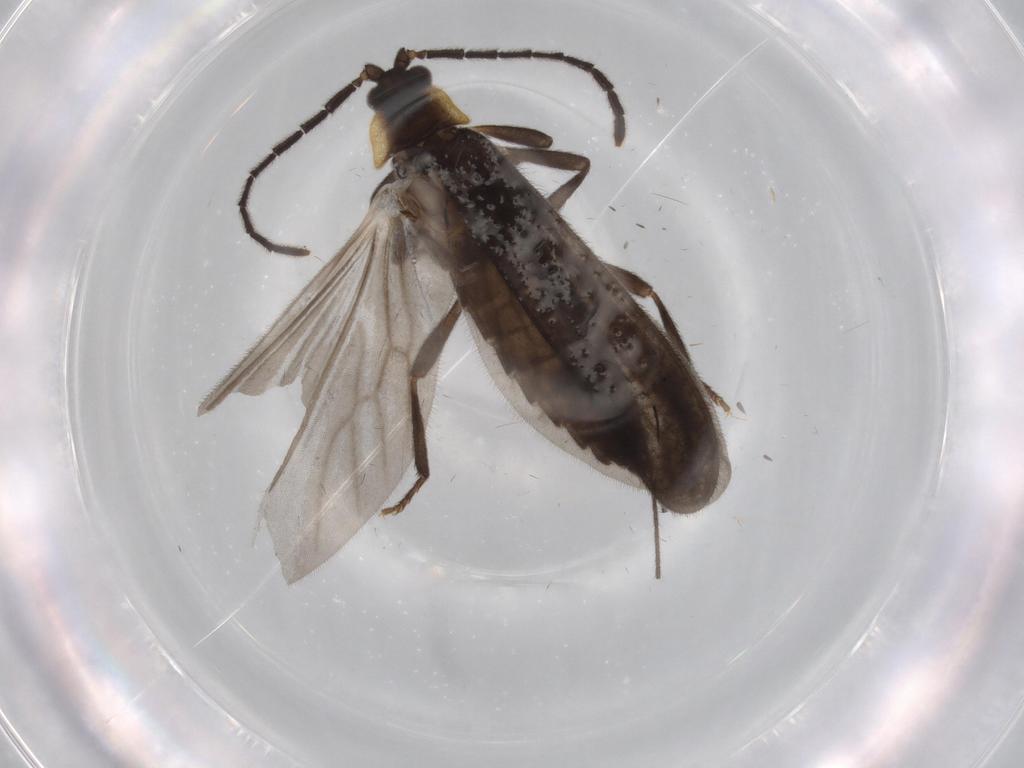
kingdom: Animalia
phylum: Arthropoda
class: Insecta
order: Coleoptera
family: Lycidae
